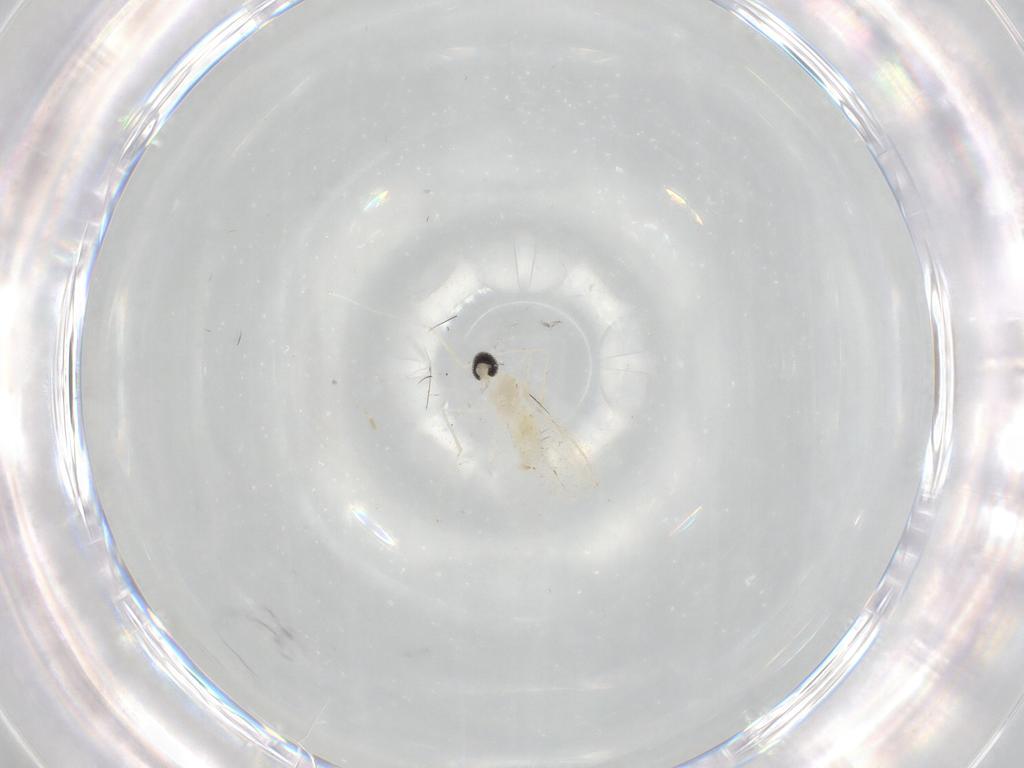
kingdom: Animalia
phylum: Arthropoda
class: Insecta
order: Diptera
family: Cecidomyiidae
